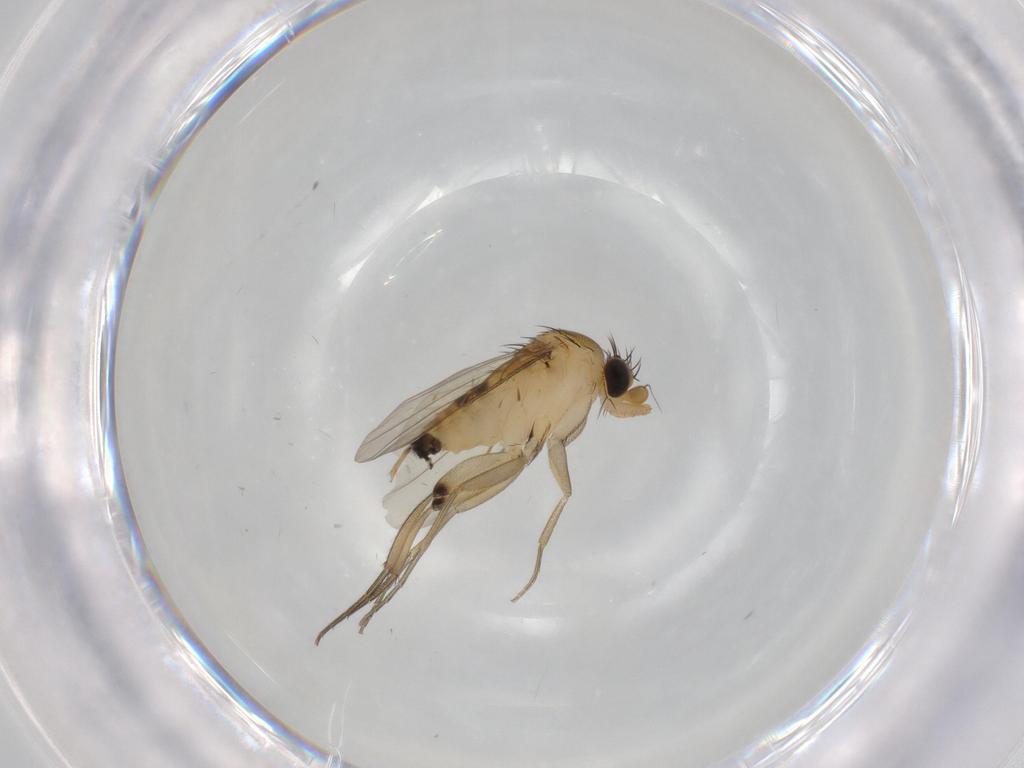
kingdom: Animalia
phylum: Arthropoda
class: Insecta
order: Diptera
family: Phoridae
